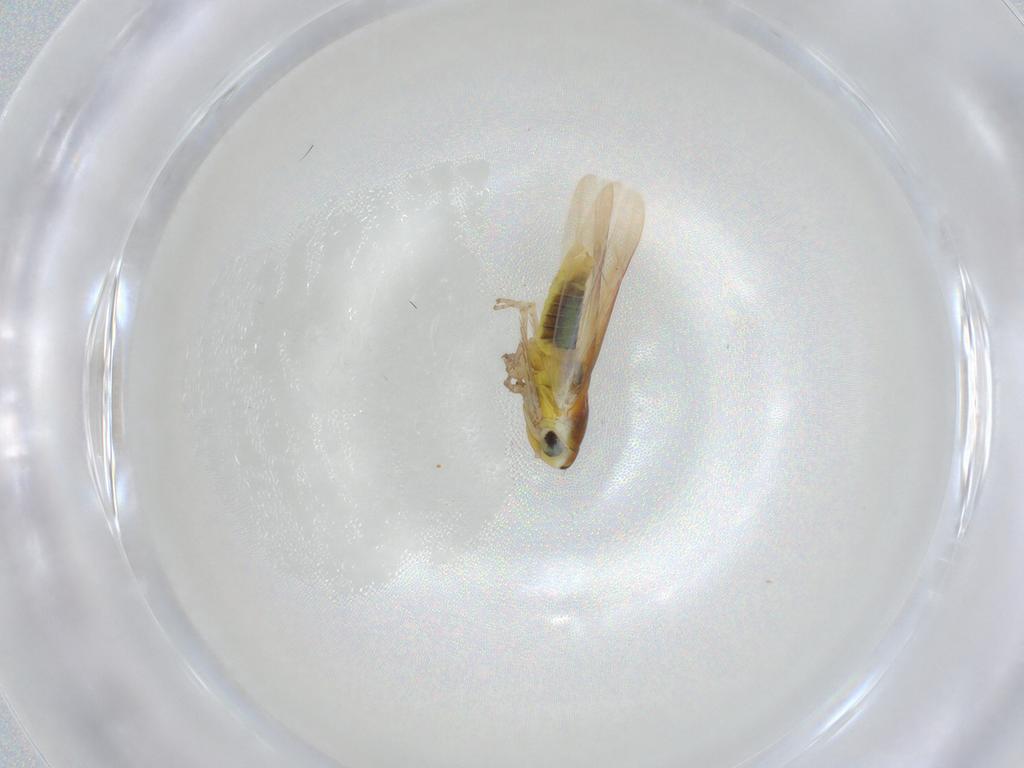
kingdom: Animalia
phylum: Arthropoda
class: Insecta
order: Hemiptera
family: Cicadellidae
